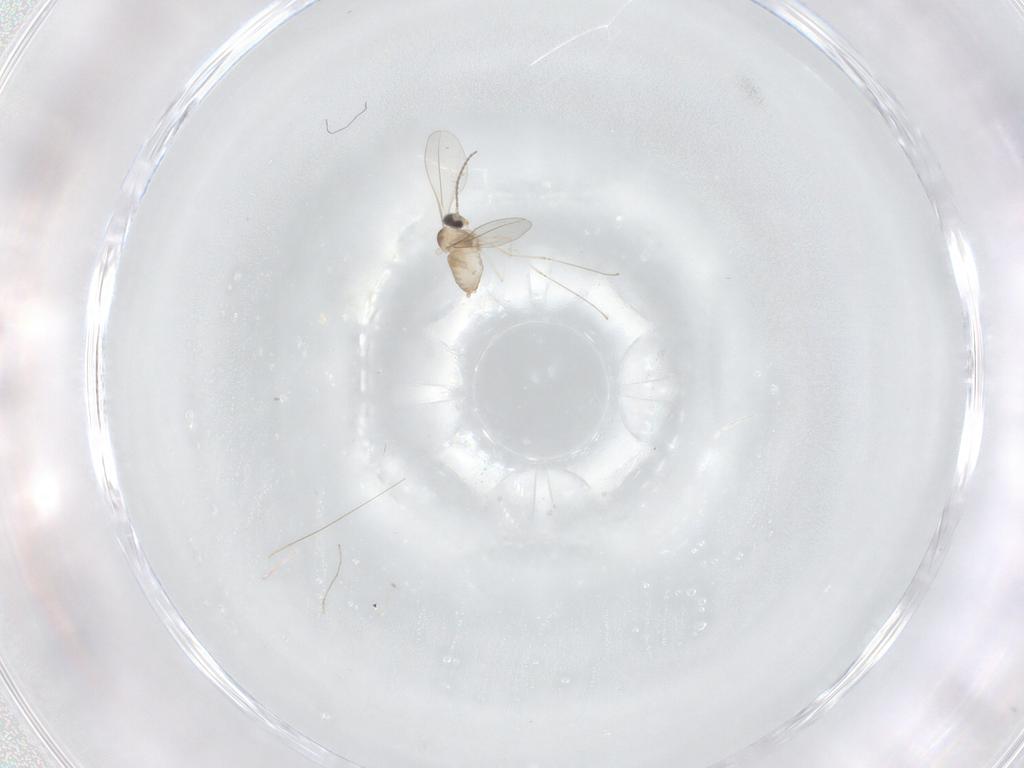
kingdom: Animalia
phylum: Arthropoda
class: Insecta
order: Diptera
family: Cecidomyiidae
